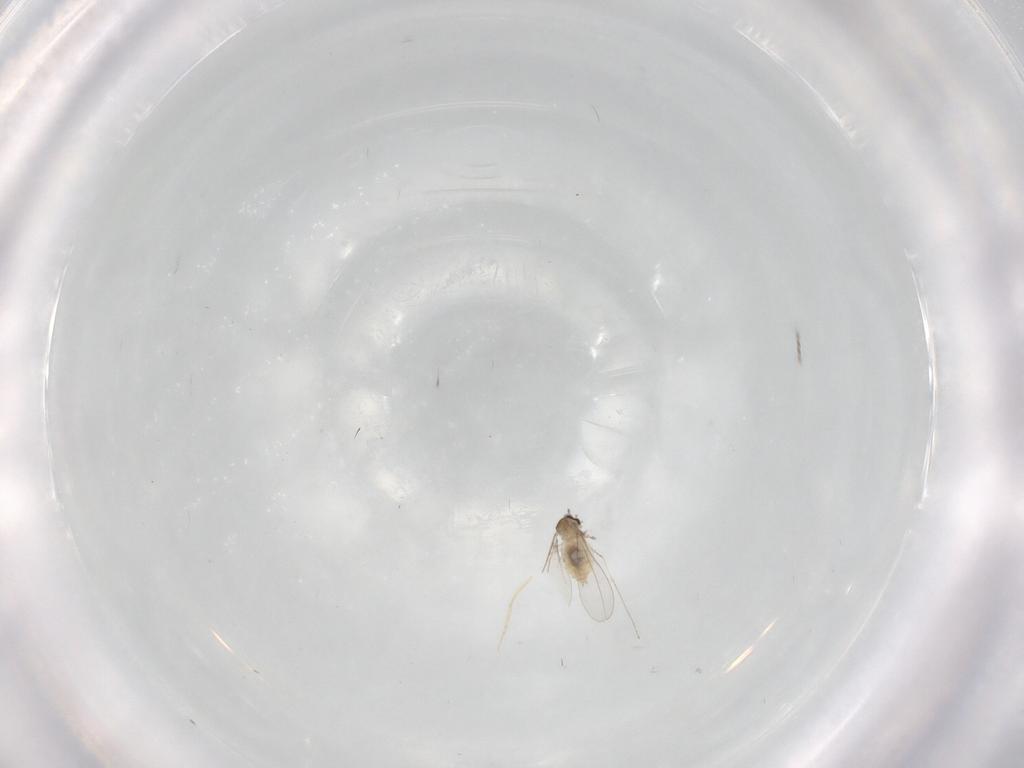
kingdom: Animalia
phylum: Arthropoda
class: Insecta
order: Diptera
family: Cecidomyiidae
